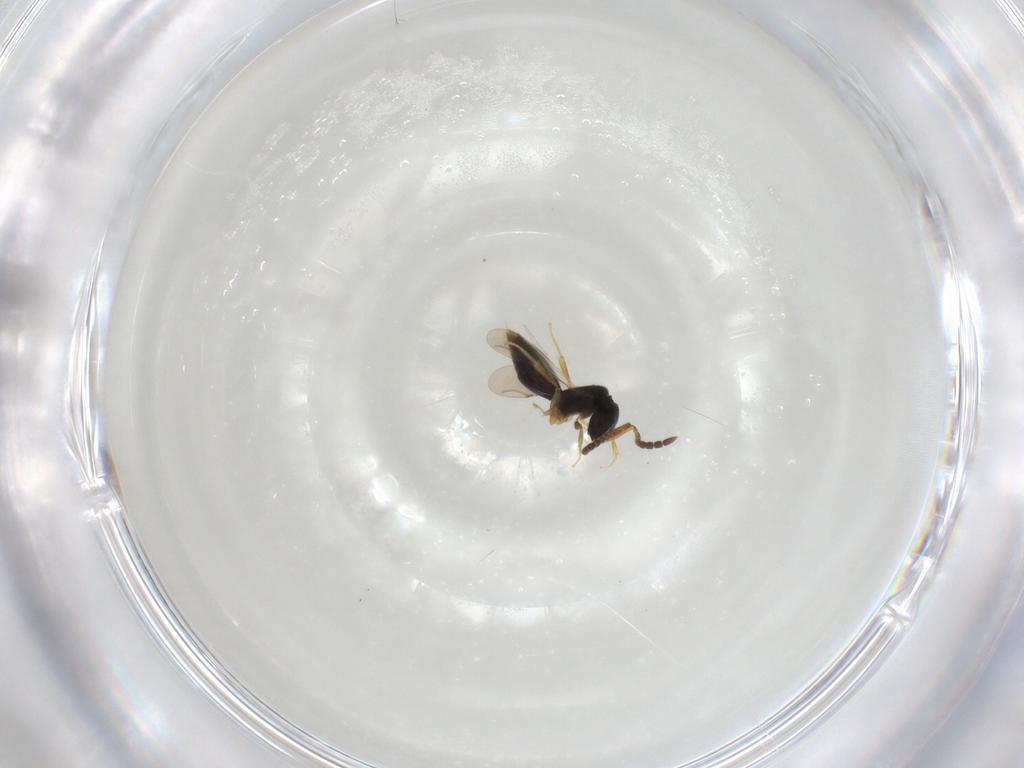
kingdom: Animalia
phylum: Arthropoda
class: Insecta
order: Hymenoptera
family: Ceraphronidae
